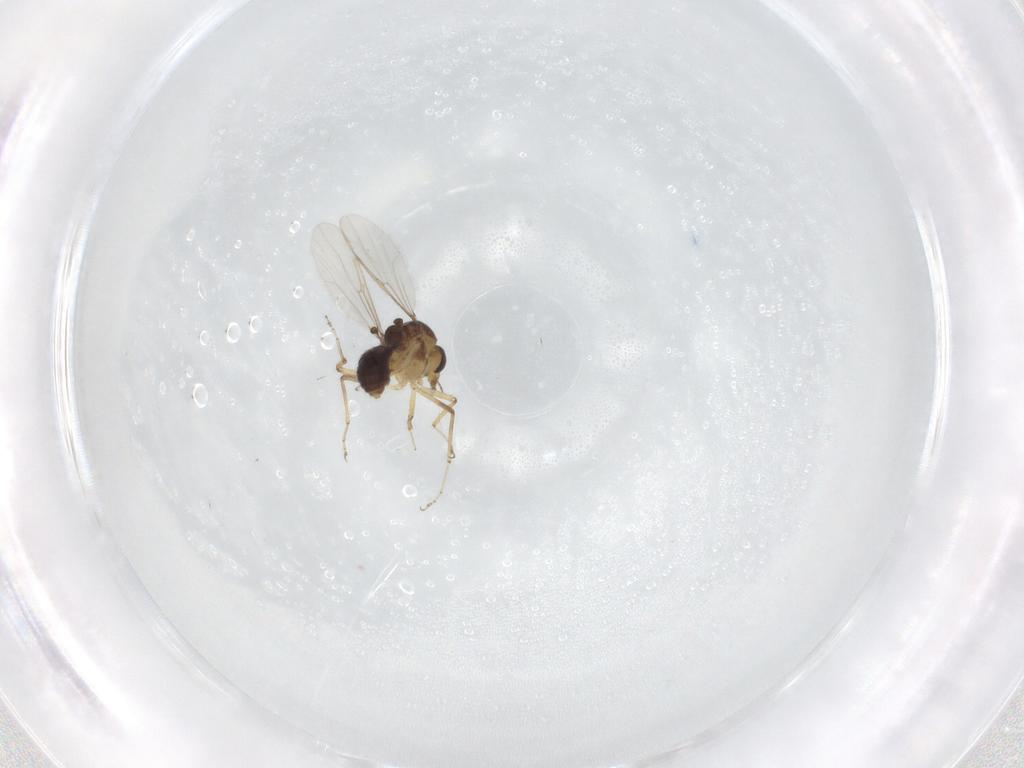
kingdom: Animalia
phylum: Arthropoda
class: Insecta
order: Diptera
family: Ceratopogonidae
